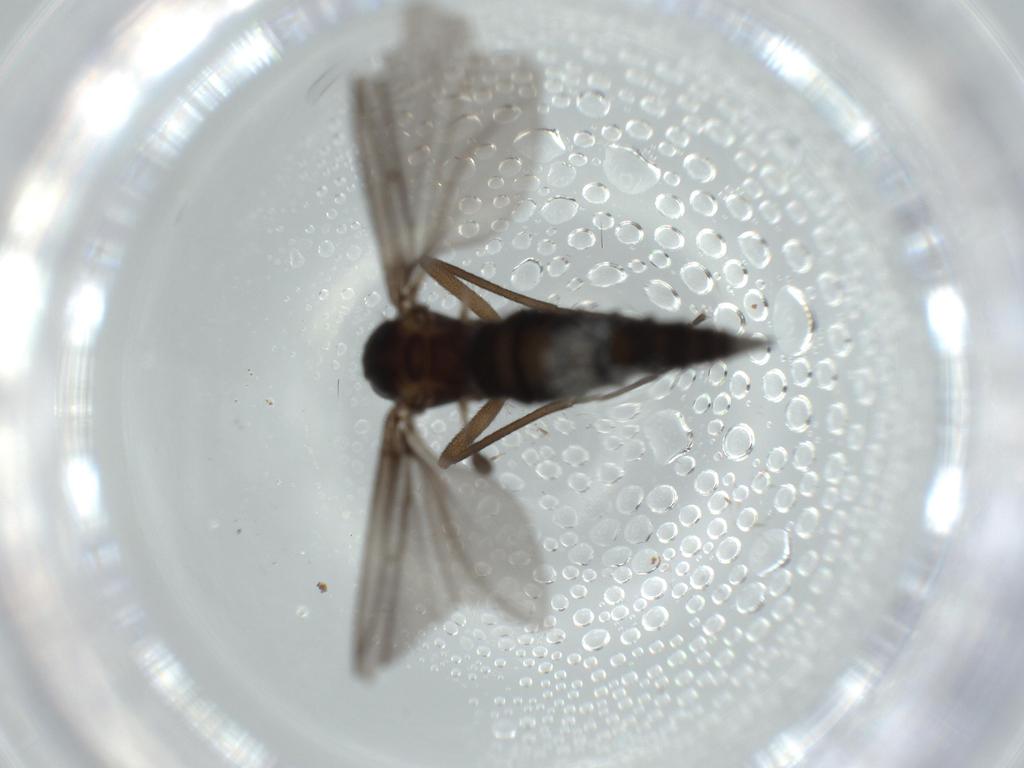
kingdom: Animalia
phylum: Arthropoda
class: Insecta
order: Diptera
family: Sciaridae
